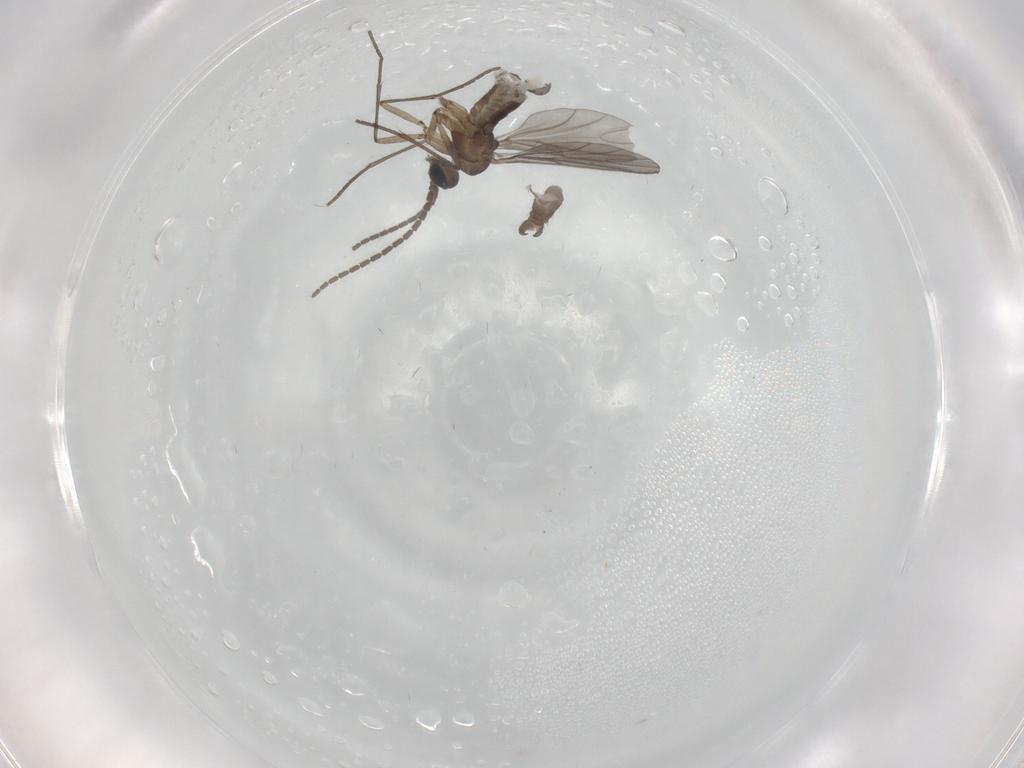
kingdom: Animalia
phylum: Arthropoda
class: Insecta
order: Diptera
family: Sciaridae
